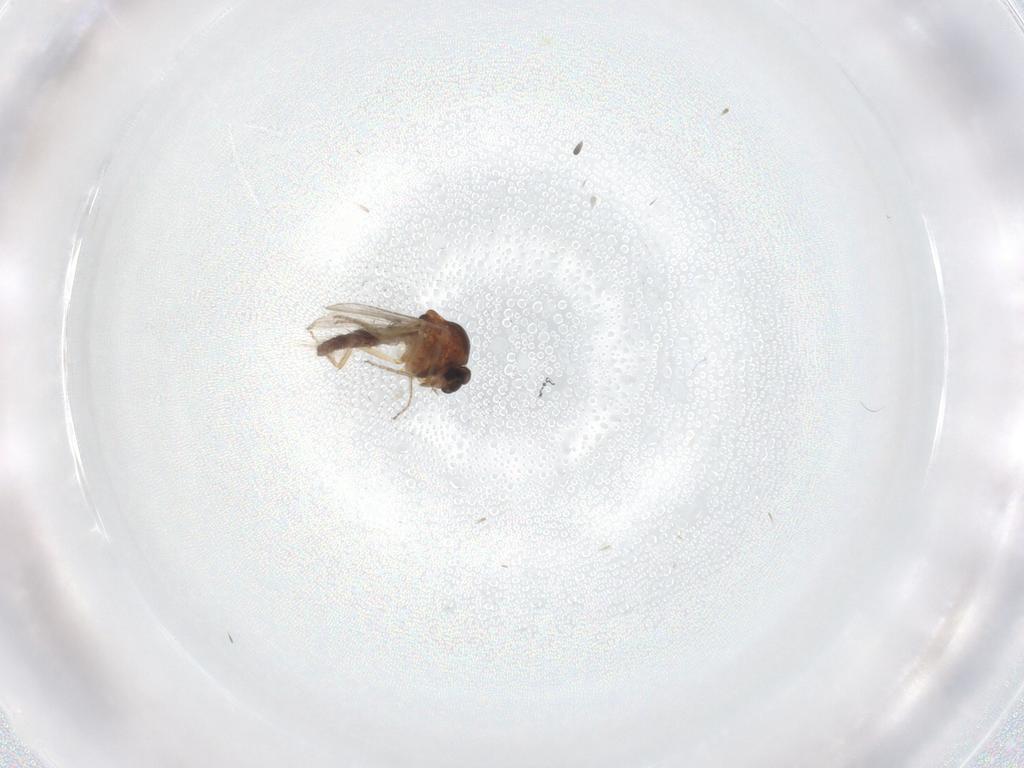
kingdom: Animalia
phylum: Arthropoda
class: Insecta
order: Diptera
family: Ceratopogonidae
